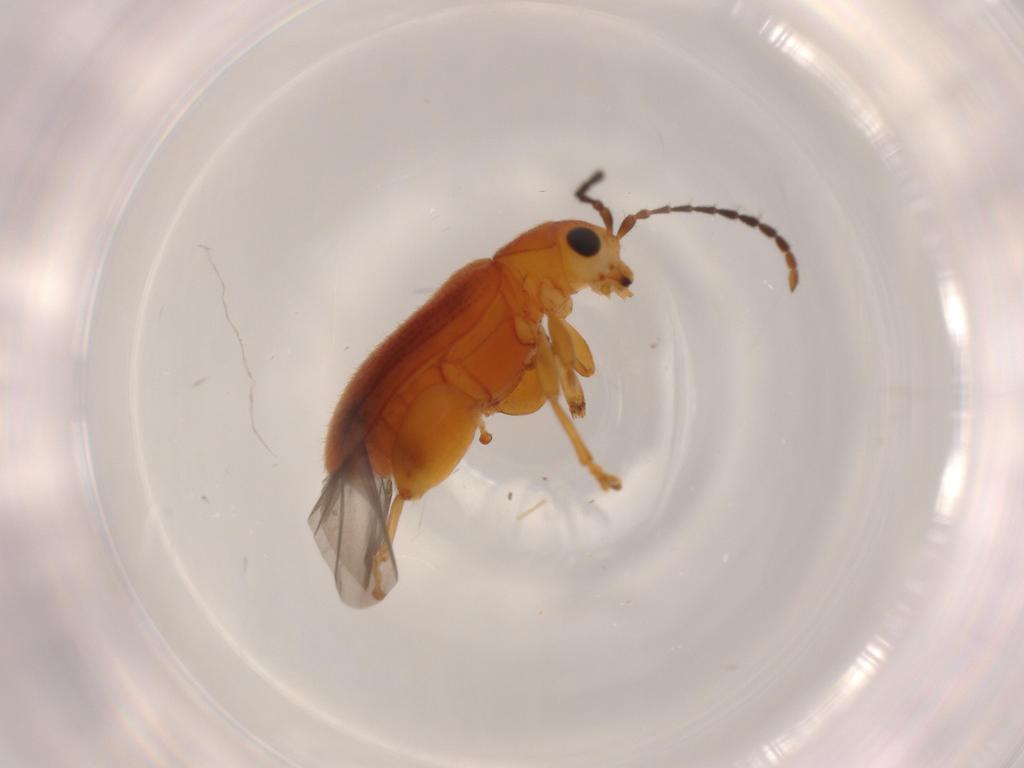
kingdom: Animalia
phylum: Arthropoda
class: Insecta
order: Coleoptera
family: Chrysomelidae
